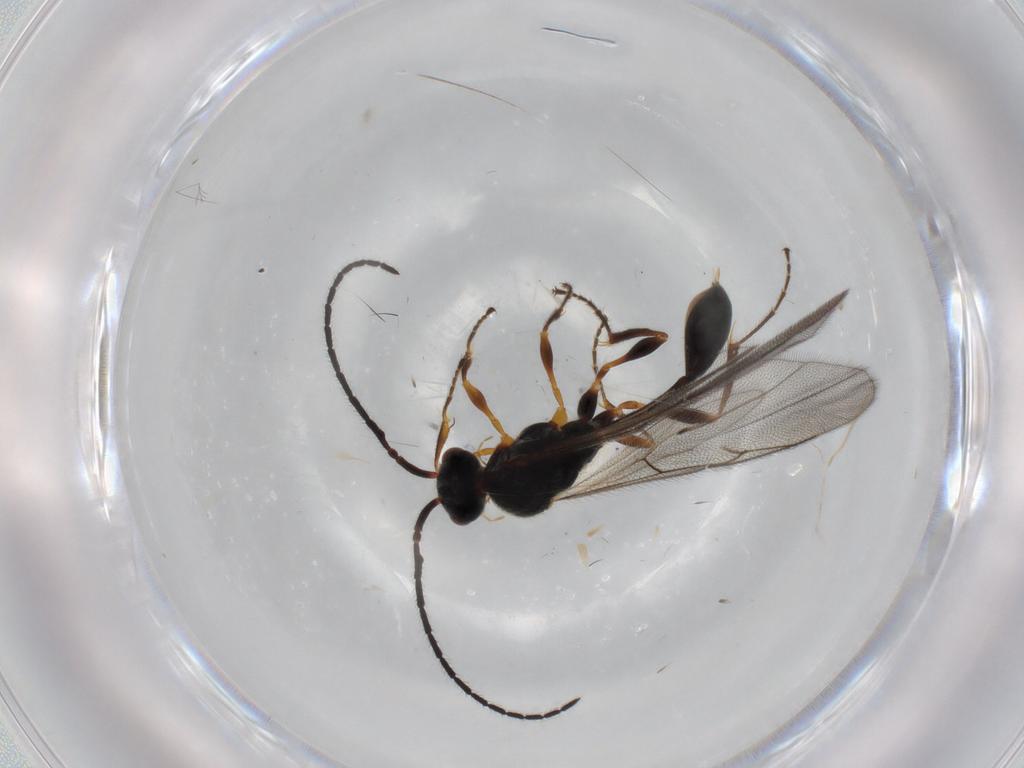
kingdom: Animalia
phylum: Arthropoda
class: Insecta
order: Hymenoptera
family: Diapriidae
